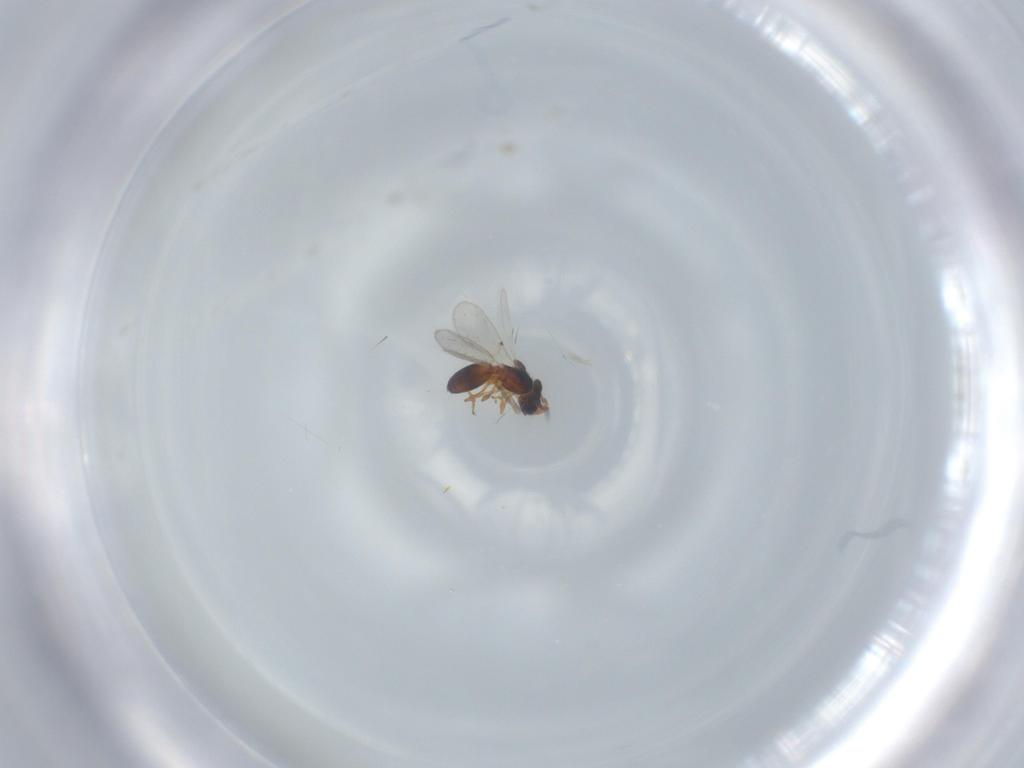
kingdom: Animalia
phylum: Arthropoda
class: Insecta
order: Hymenoptera
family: Diapriidae
